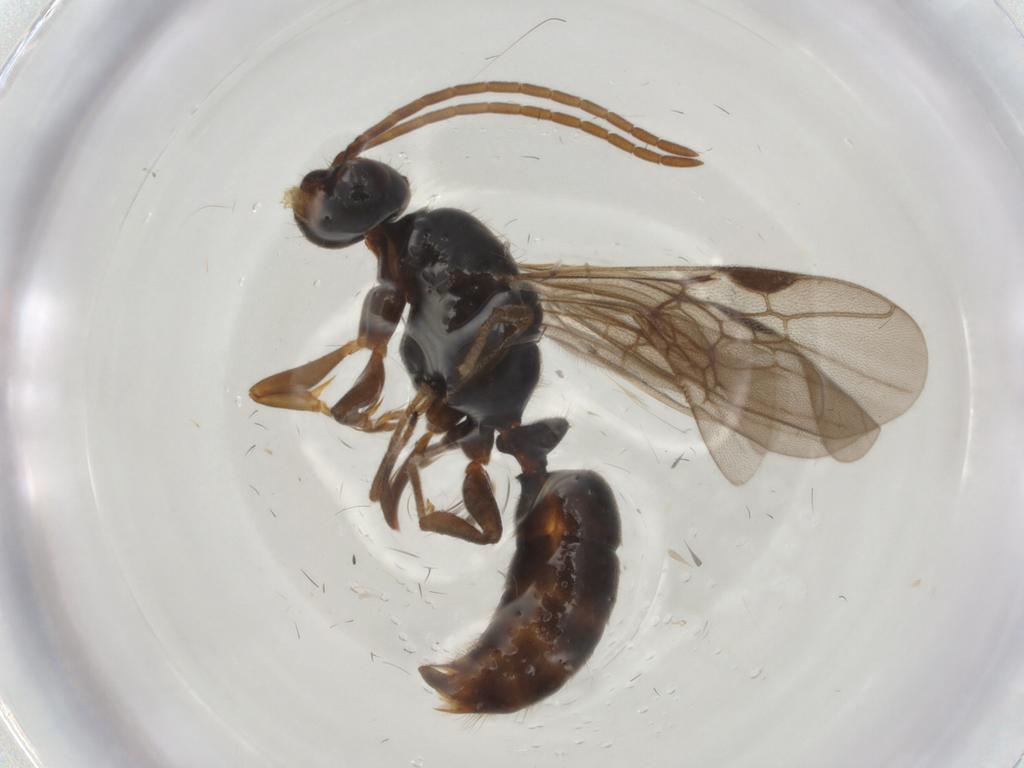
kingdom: Animalia
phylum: Arthropoda
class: Insecta
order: Hymenoptera
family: Formicidae
